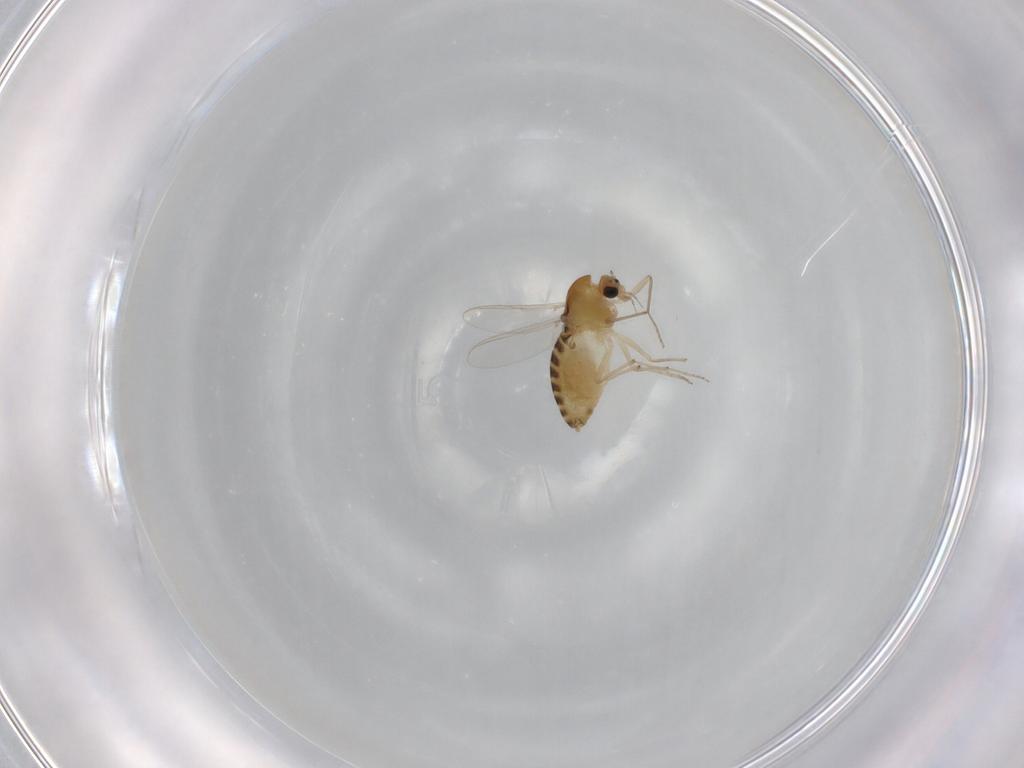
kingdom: Animalia
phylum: Arthropoda
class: Insecta
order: Diptera
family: Chironomidae
